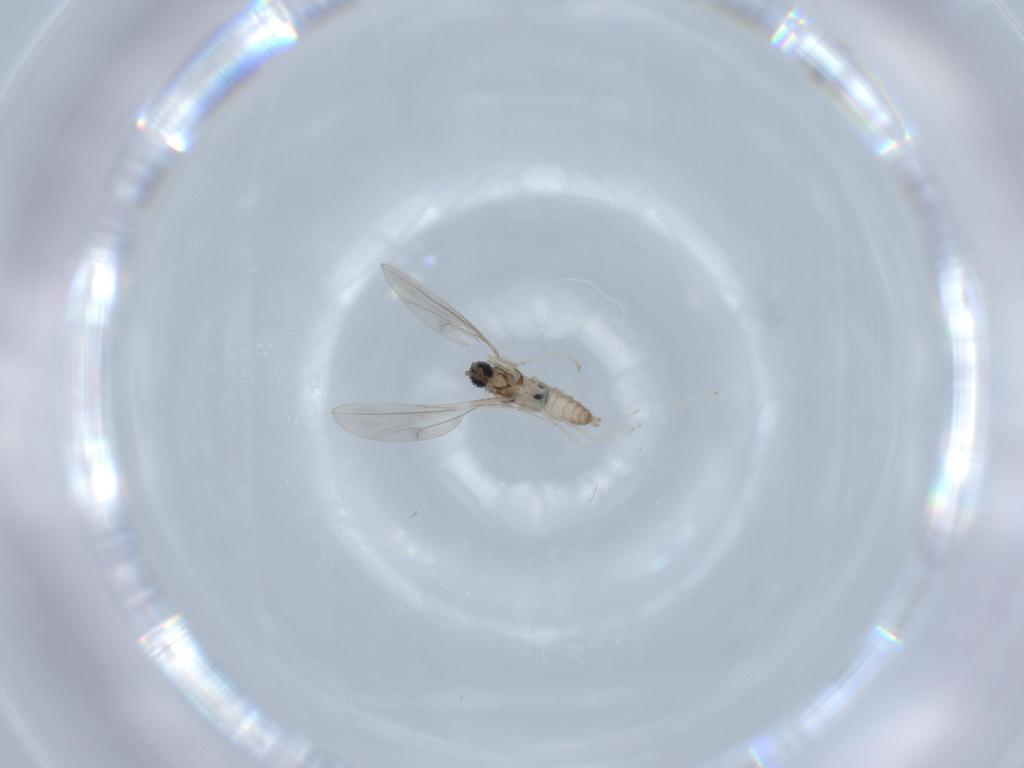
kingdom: Animalia
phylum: Arthropoda
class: Insecta
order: Diptera
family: Cecidomyiidae
